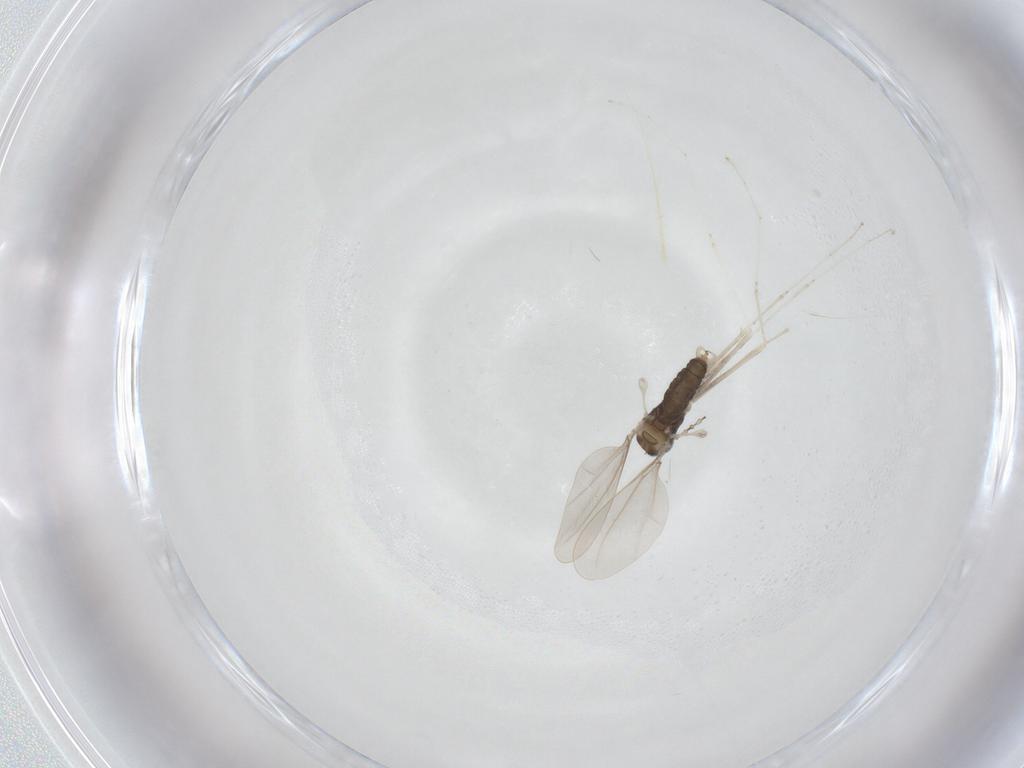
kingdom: Animalia
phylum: Arthropoda
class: Insecta
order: Diptera
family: Cecidomyiidae
